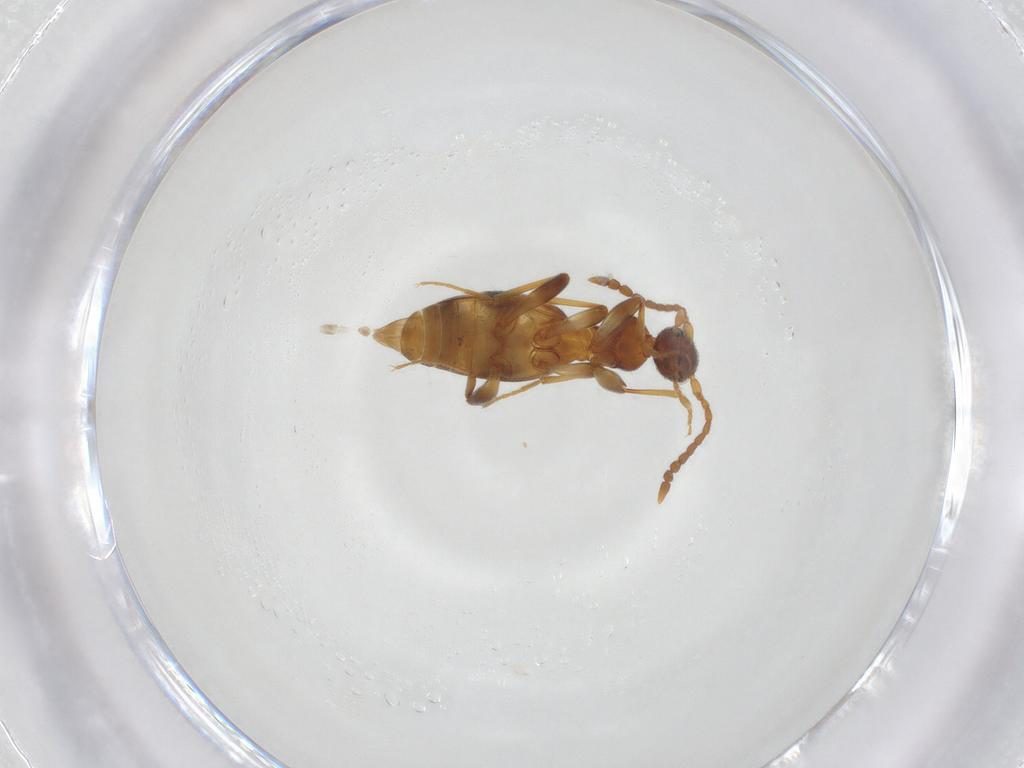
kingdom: Animalia
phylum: Arthropoda
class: Insecta
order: Coleoptera
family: Anthicidae
